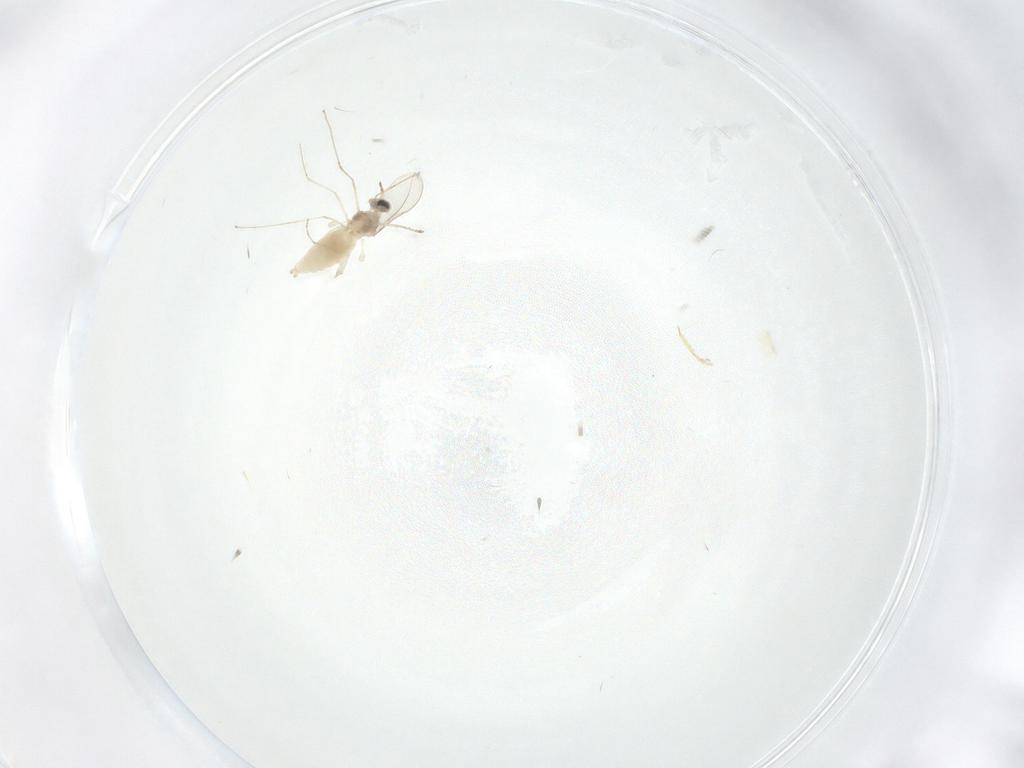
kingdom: Animalia
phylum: Arthropoda
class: Insecta
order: Diptera
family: Cecidomyiidae
